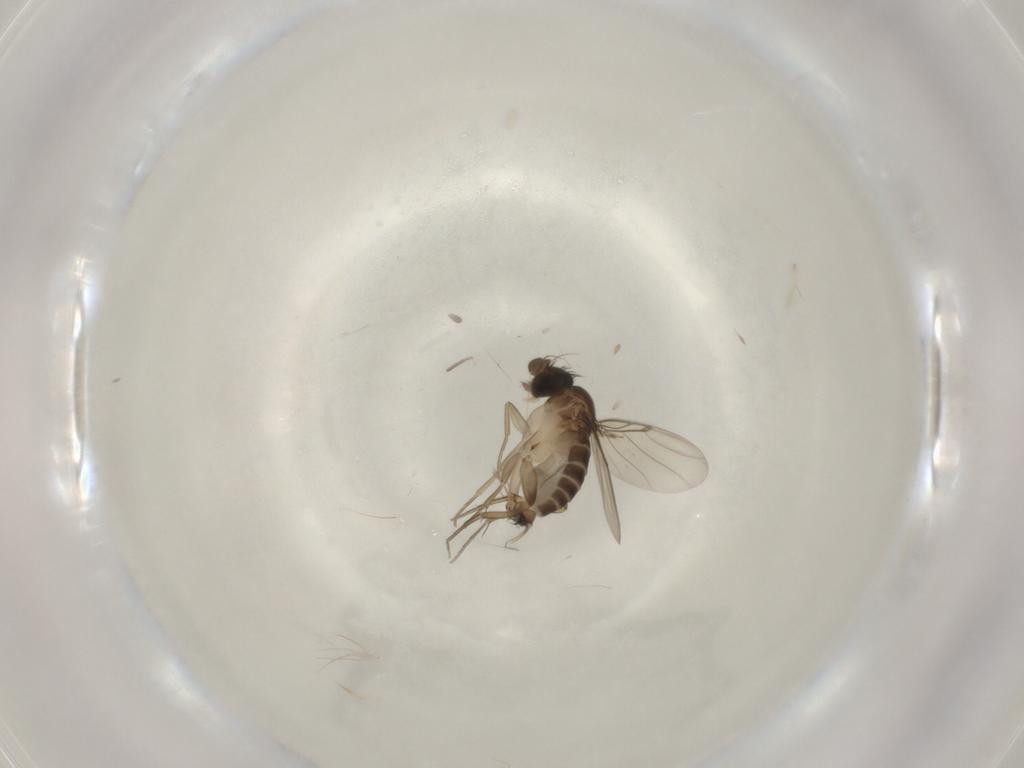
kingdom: Animalia
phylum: Arthropoda
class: Insecta
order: Diptera
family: Phoridae
